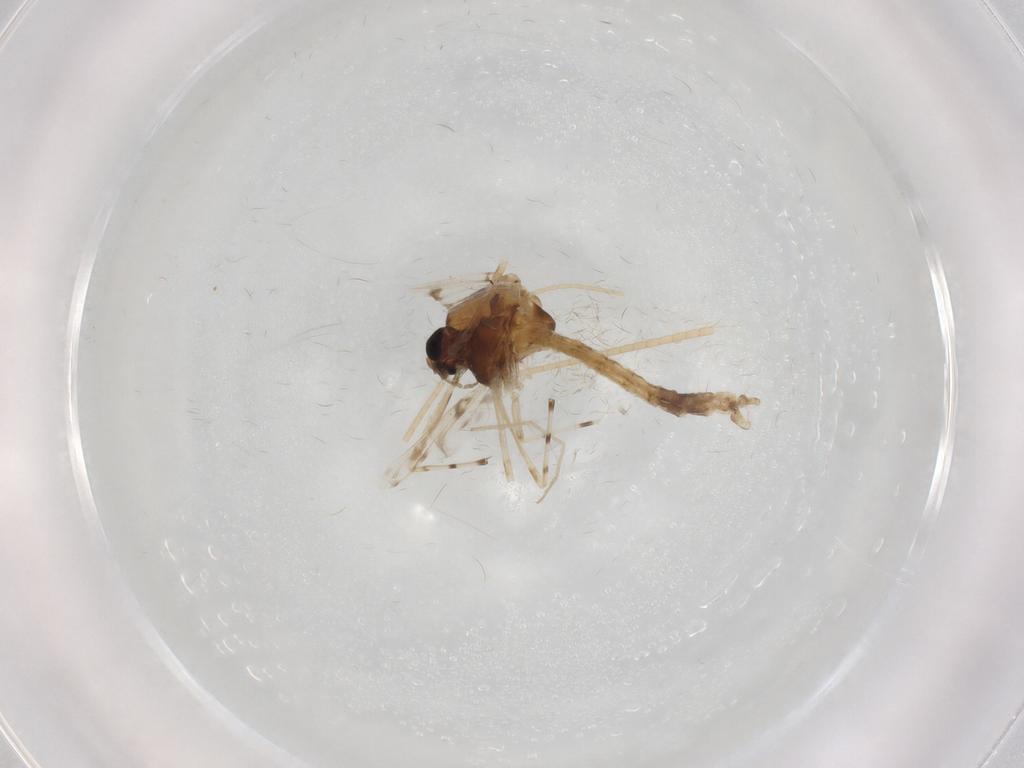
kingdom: Animalia
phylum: Arthropoda
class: Insecta
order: Diptera
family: Chironomidae
